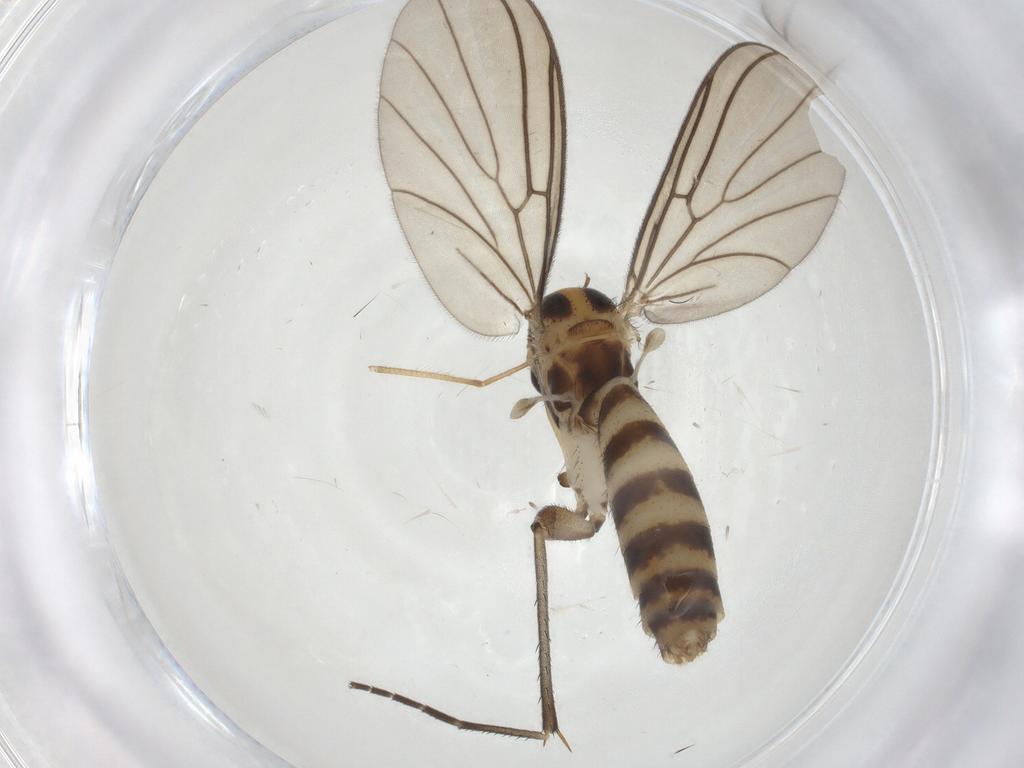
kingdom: Animalia
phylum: Arthropoda
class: Insecta
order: Diptera
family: Mycetophilidae
